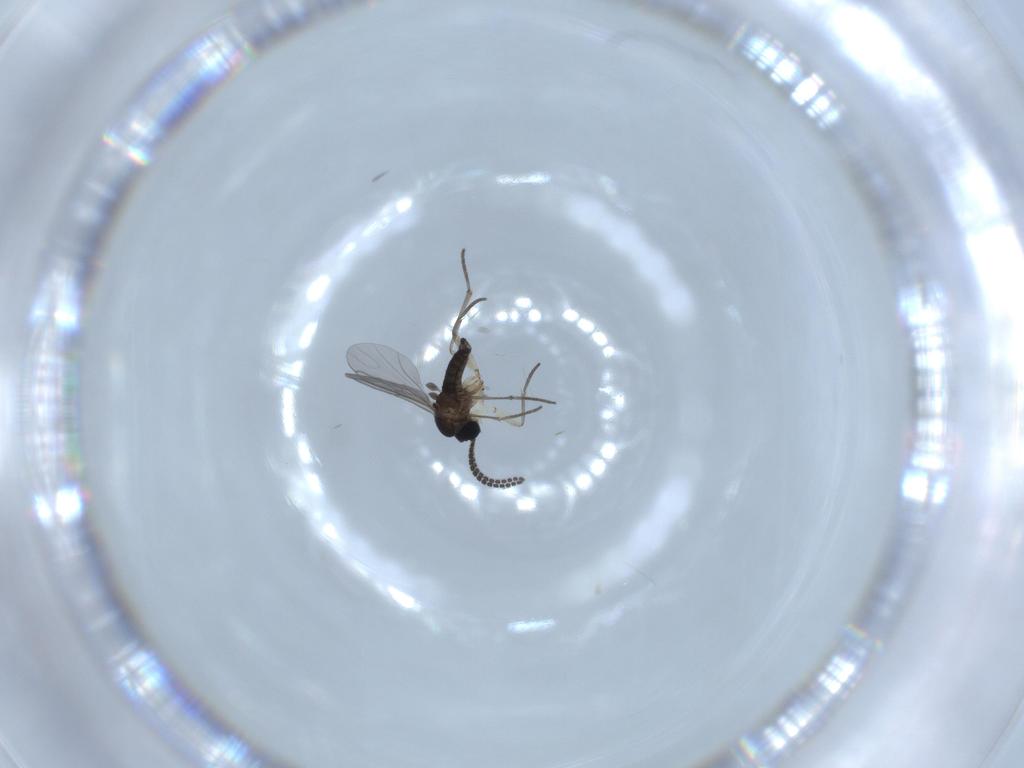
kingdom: Animalia
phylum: Arthropoda
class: Insecta
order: Diptera
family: Sciaridae
